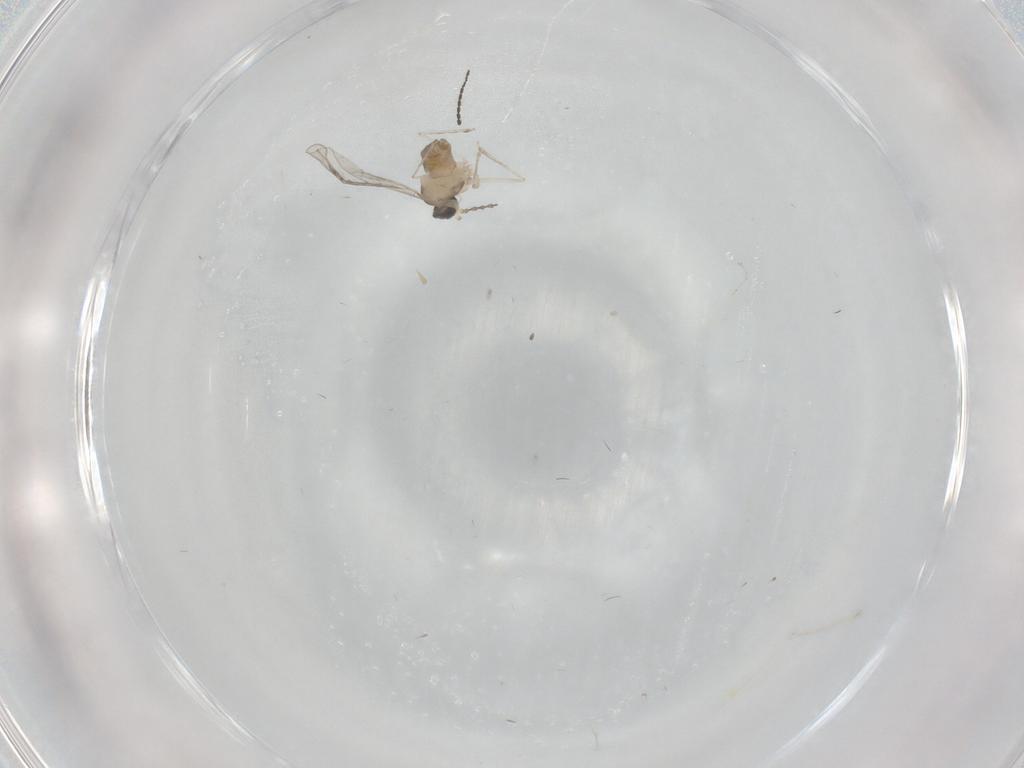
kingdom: Animalia
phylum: Arthropoda
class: Insecta
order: Diptera
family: Cecidomyiidae
